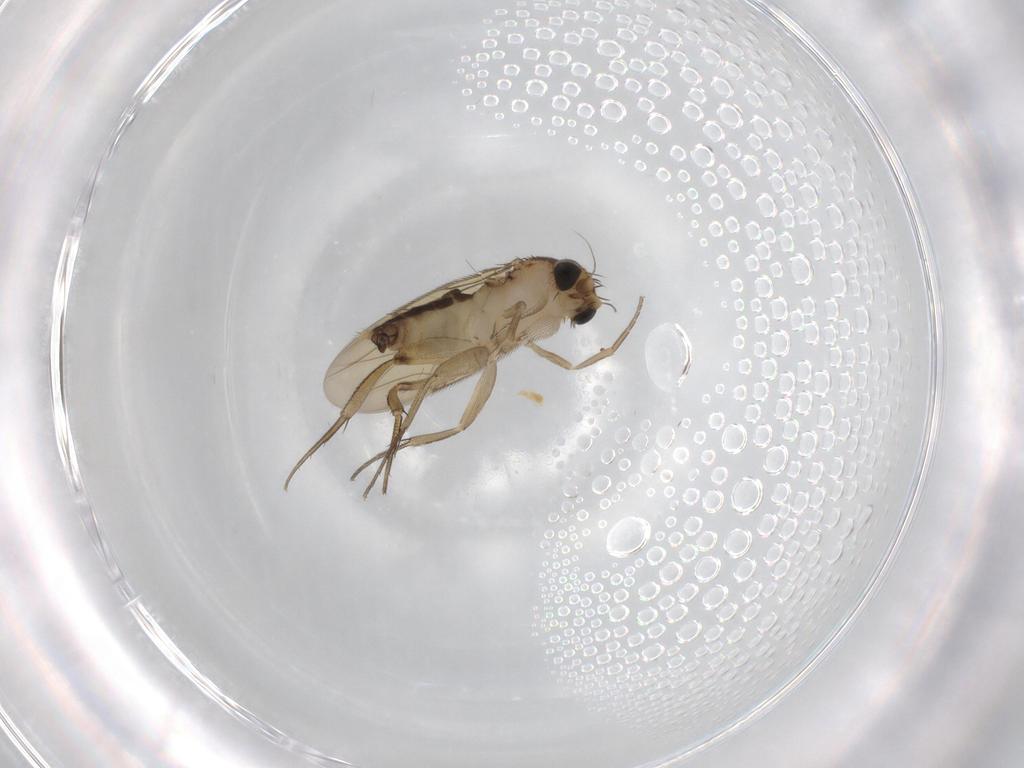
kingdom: Animalia
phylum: Arthropoda
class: Insecta
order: Diptera
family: Phoridae
